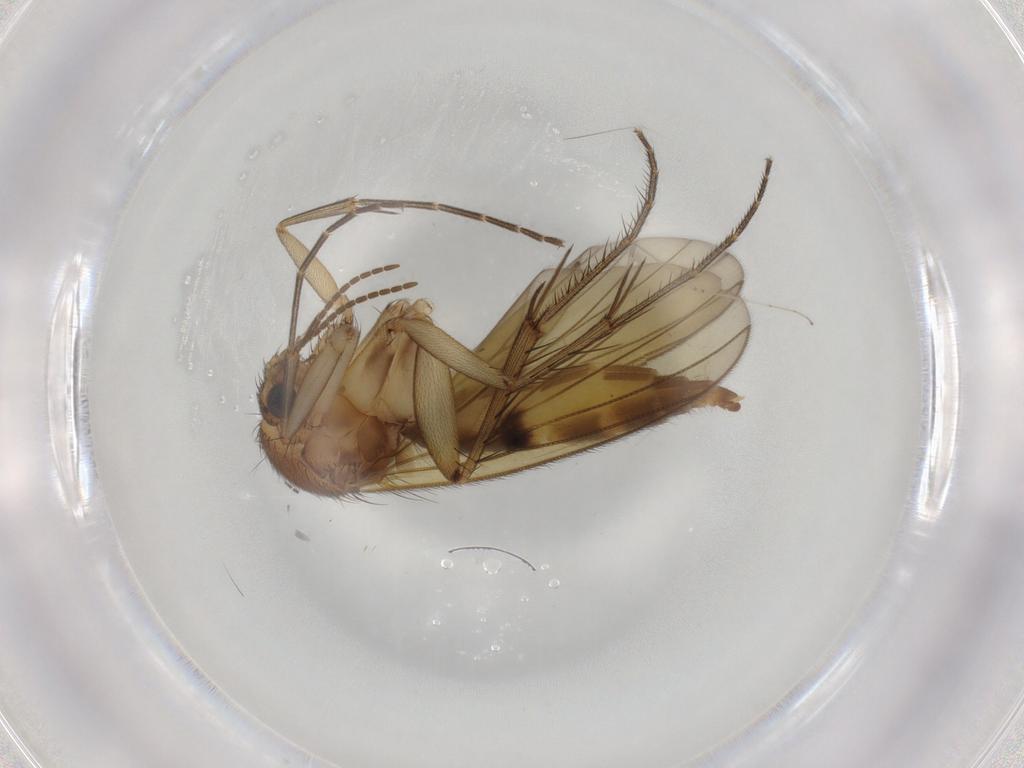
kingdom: Animalia
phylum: Arthropoda
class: Insecta
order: Diptera
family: Mycetophilidae
